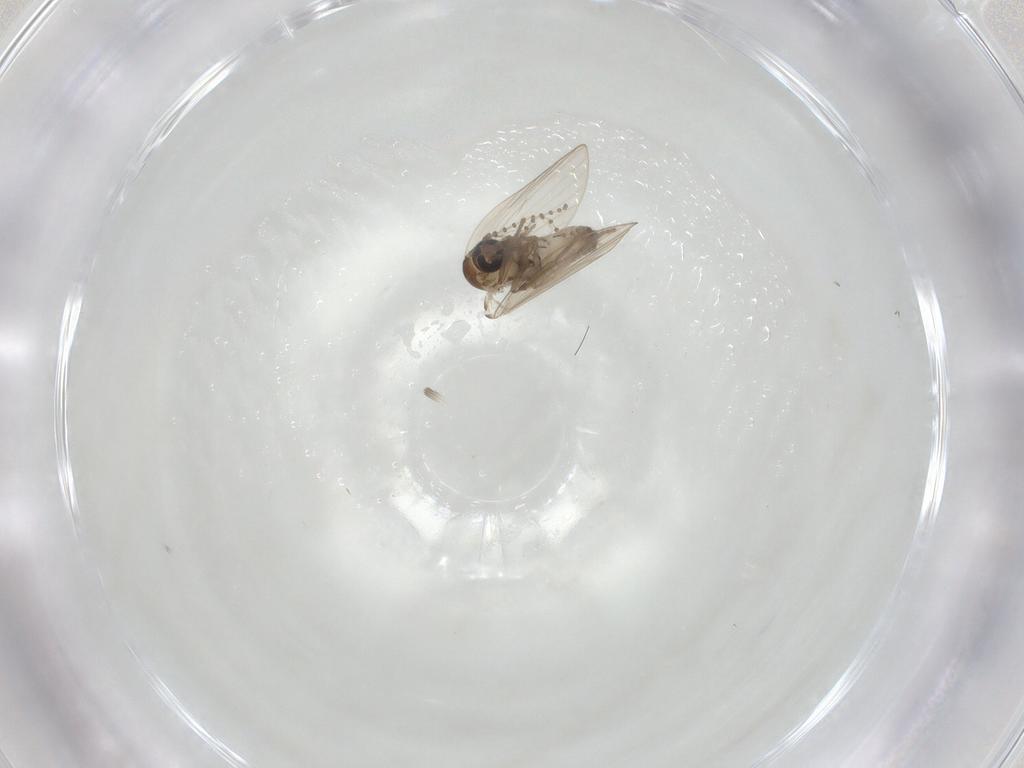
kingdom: Animalia
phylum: Arthropoda
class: Insecta
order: Diptera
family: Psychodidae
